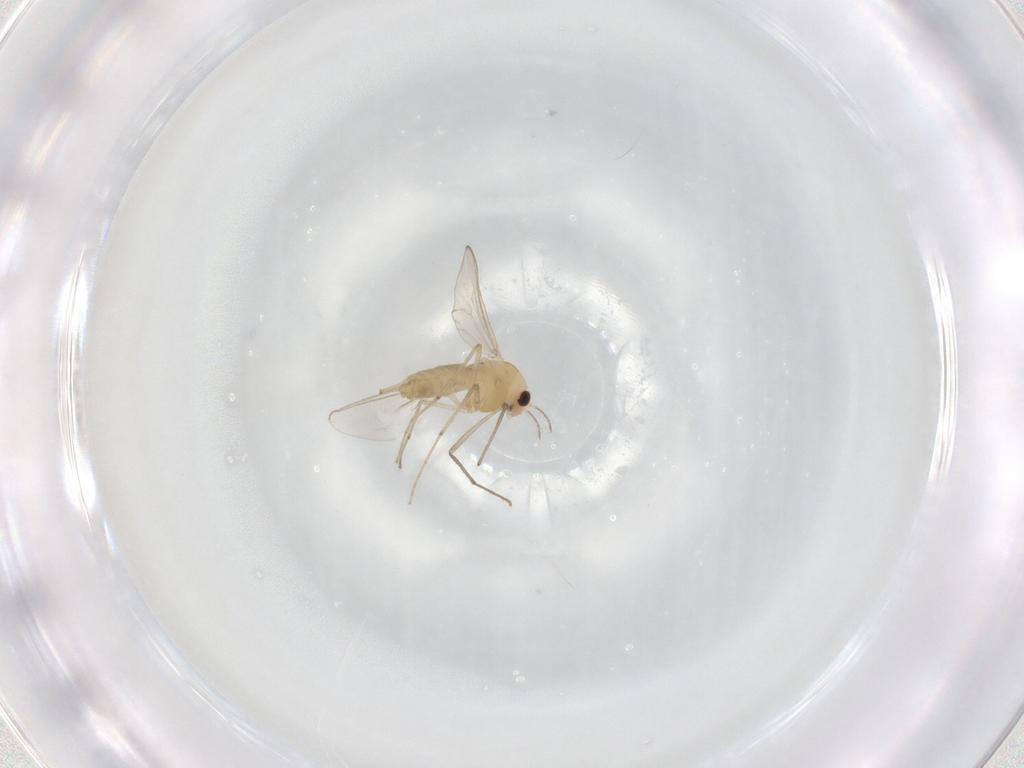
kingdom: Animalia
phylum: Arthropoda
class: Insecta
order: Diptera
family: Chironomidae
